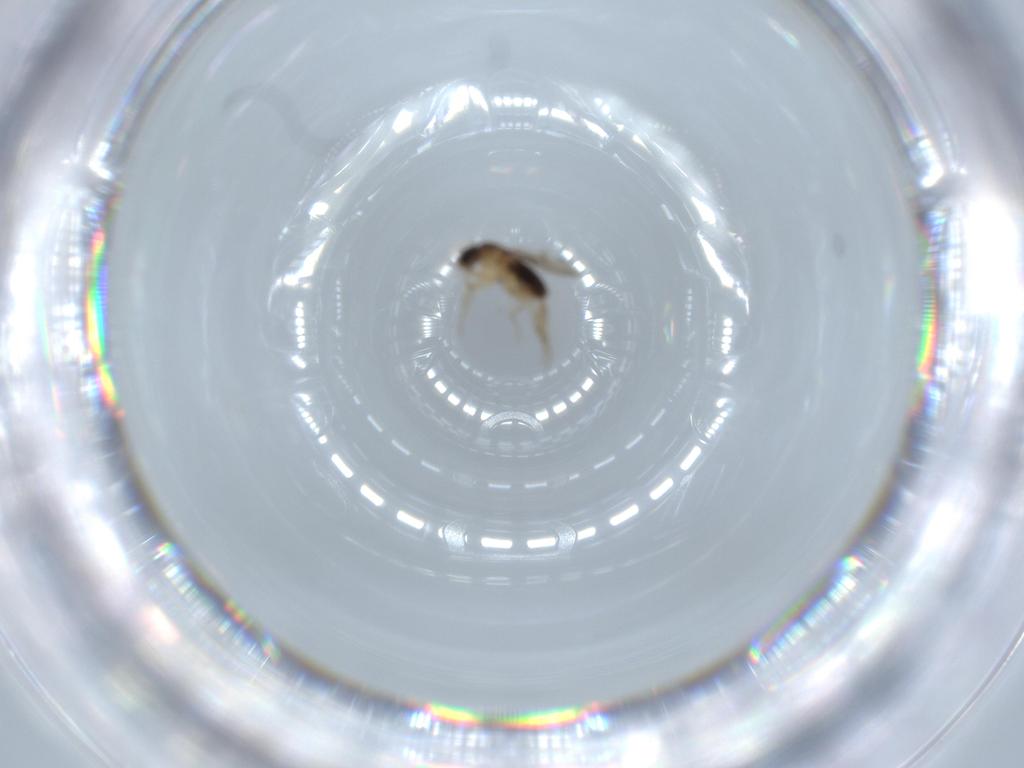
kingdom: Animalia
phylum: Arthropoda
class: Insecta
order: Diptera
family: Phoridae
